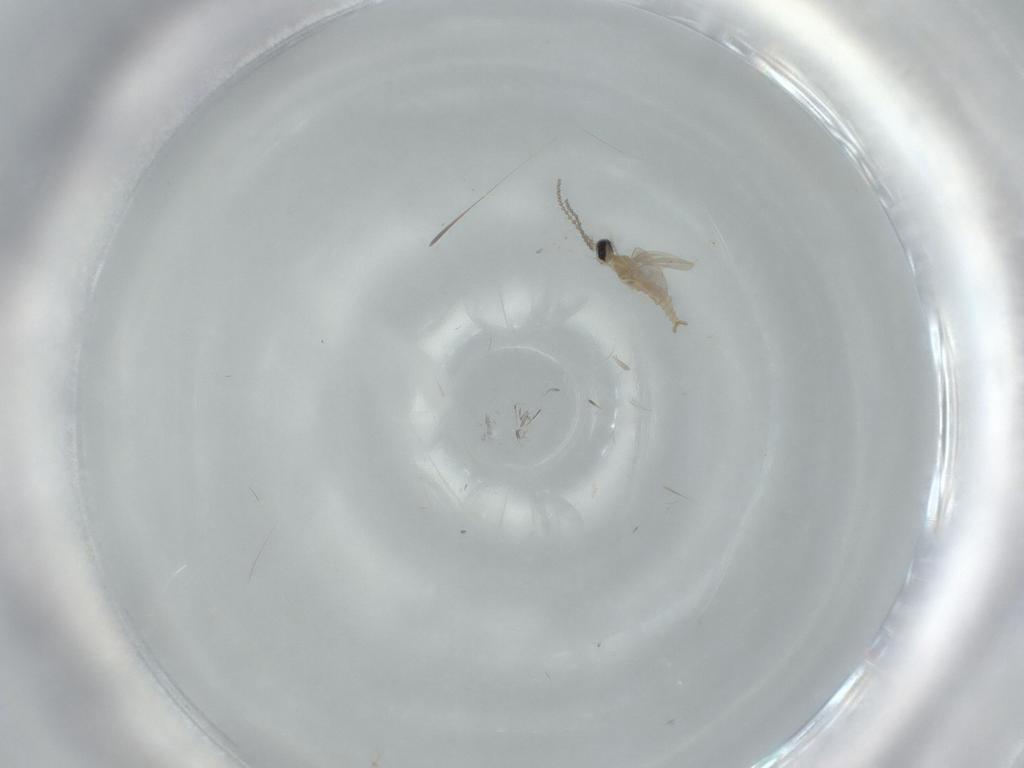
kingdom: Animalia
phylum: Arthropoda
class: Insecta
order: Diptera
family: Cecidomyiidae
